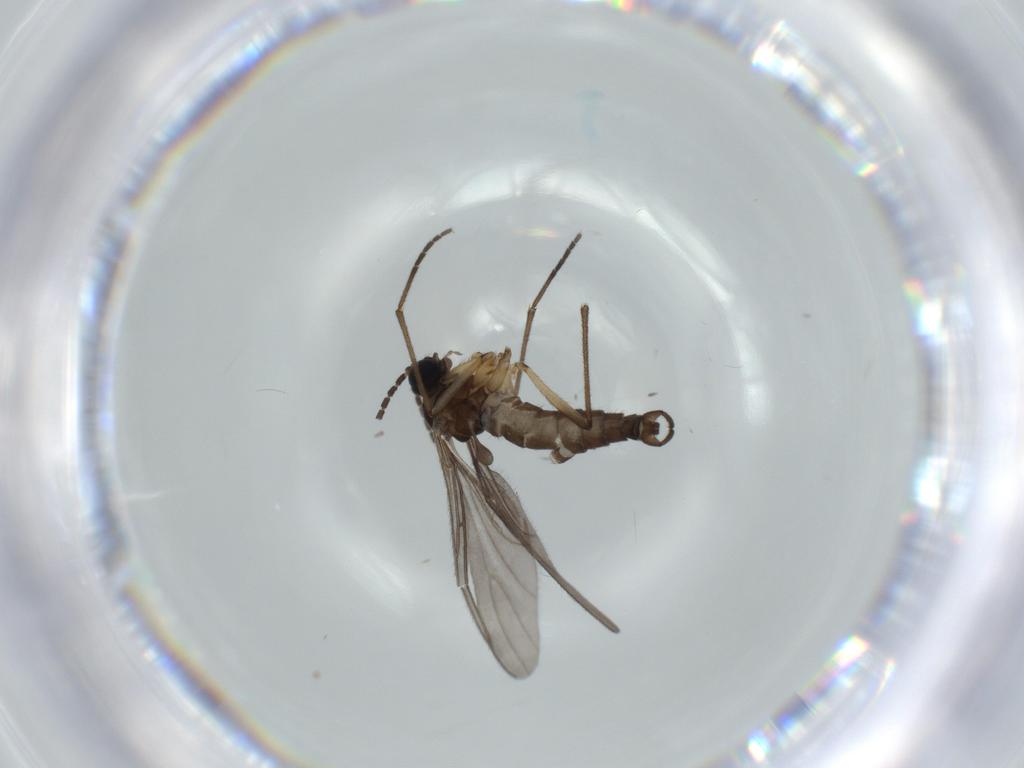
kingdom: Animalia
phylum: Arthropoda
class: Insecta
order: Diptera
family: Sciaridae
